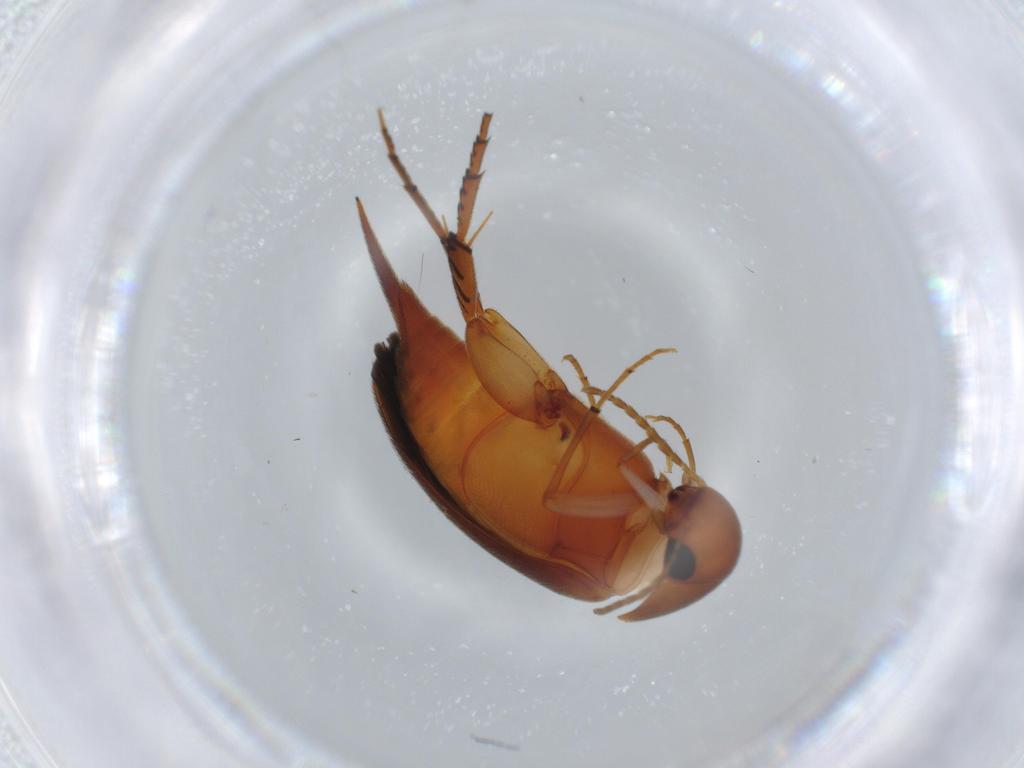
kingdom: Animalia
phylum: Arthropoda
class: Insecta
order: Coleoptera
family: Mordellidae
